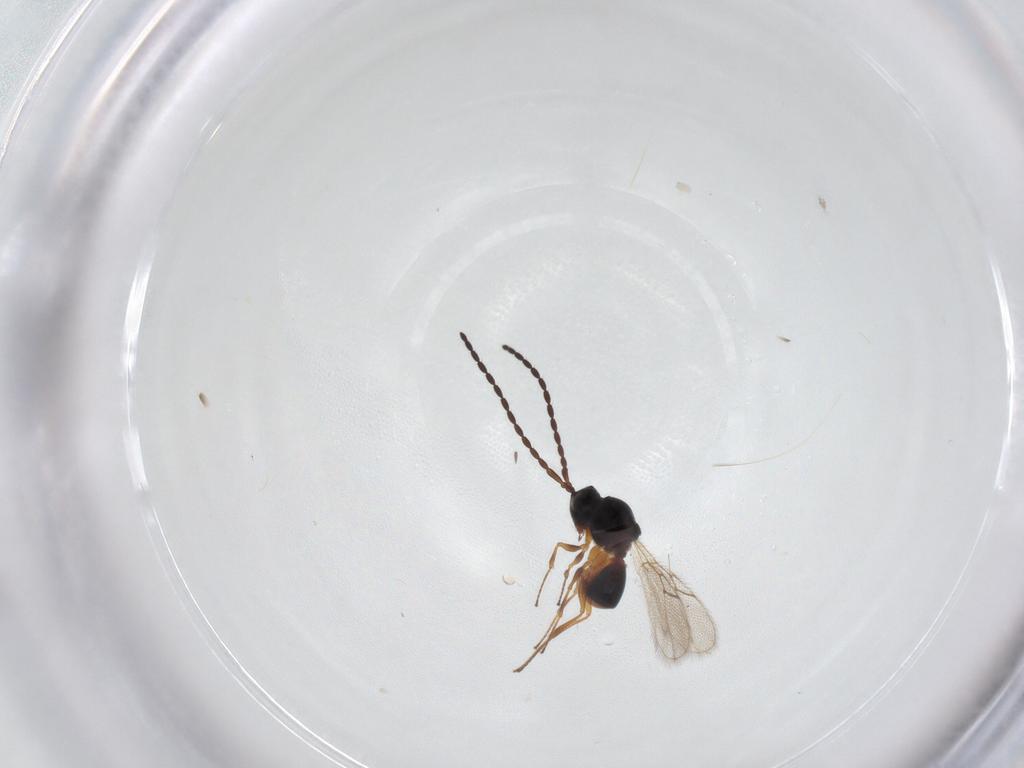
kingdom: Animalia
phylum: Arthropoda
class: Insecta
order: Hymenoptera
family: Figitidae
